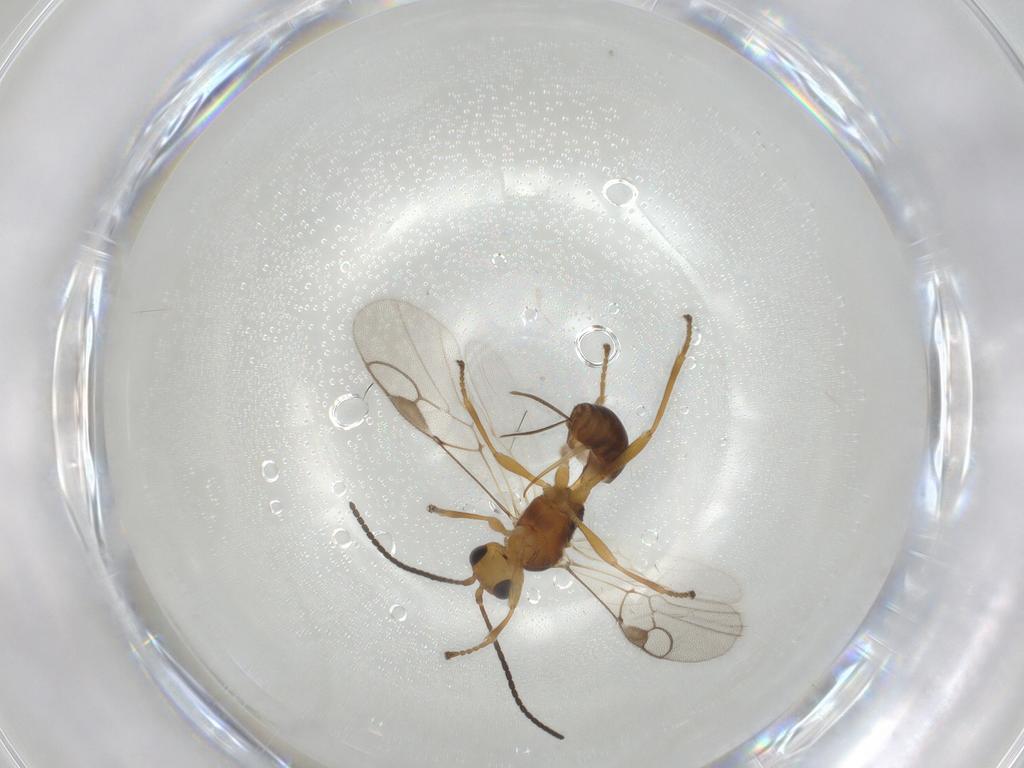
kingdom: Animalia
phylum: Arthropoda
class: Insecta
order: Hymenoptera
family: Braconidae
